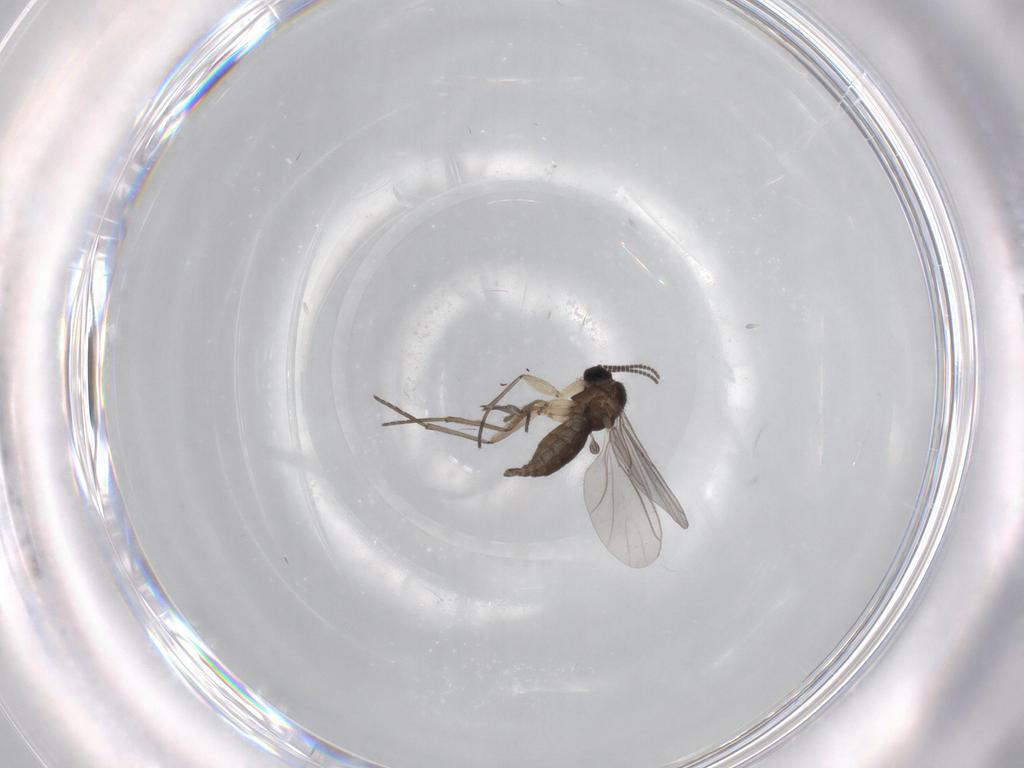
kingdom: Animalia
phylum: Arthropoda
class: Insecta
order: Diptera
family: Sciaridae
